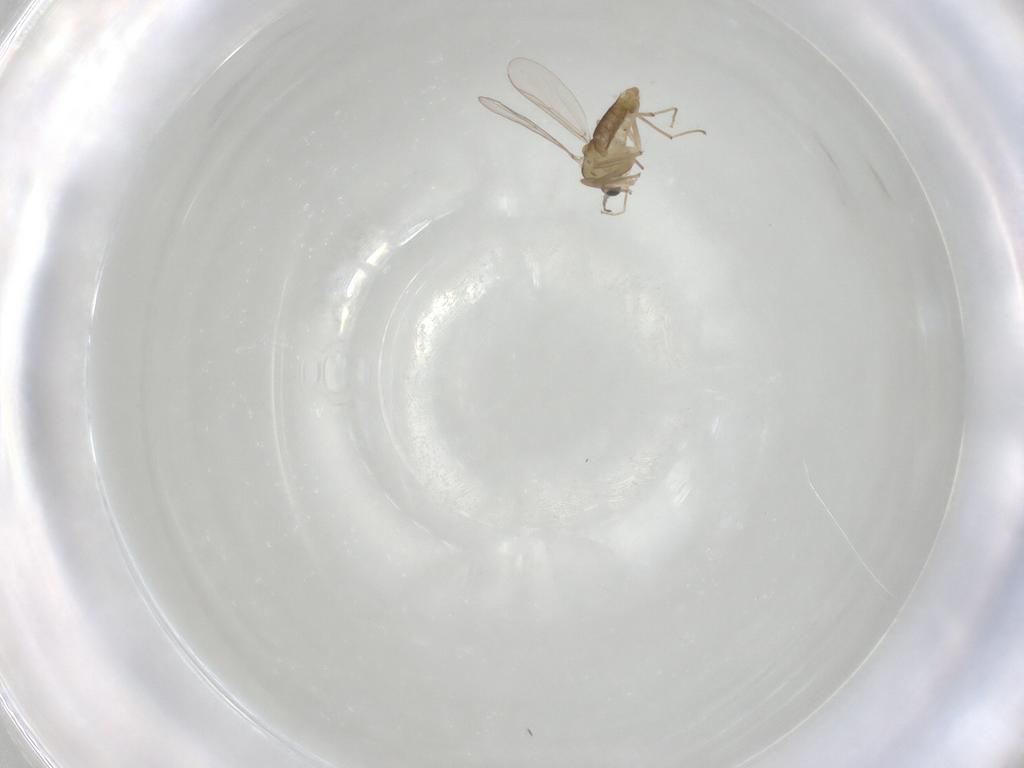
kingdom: Animalia
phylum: Arthropoda
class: Insecta
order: Diptera
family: Chironomidae
